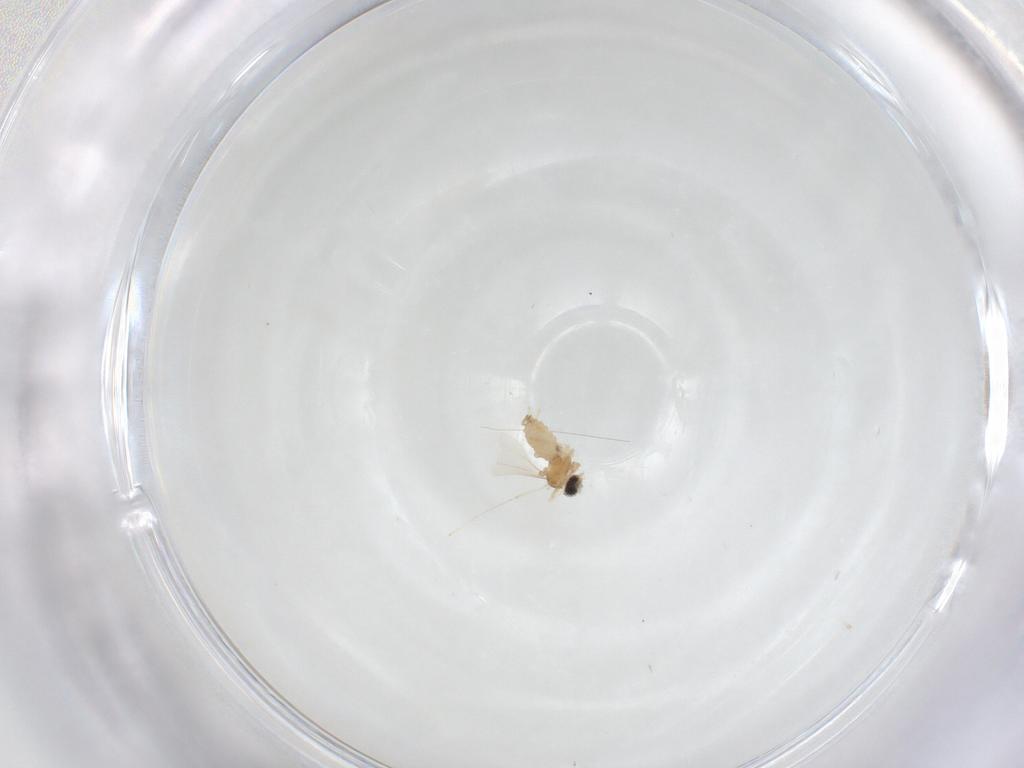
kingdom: Animalia
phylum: Arthropoda
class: Insecta
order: Diptera
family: Cecidomyiidae
